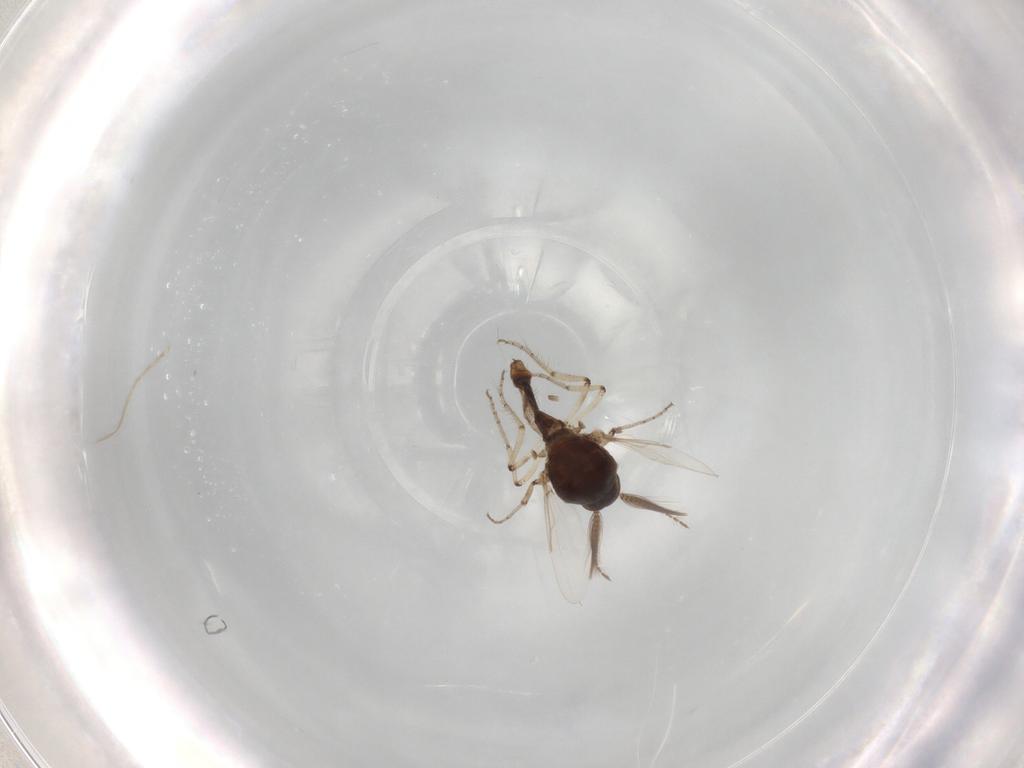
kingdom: Animalia
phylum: Arthropoda
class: Insecta
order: Diptera
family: Ceratopogonidae
